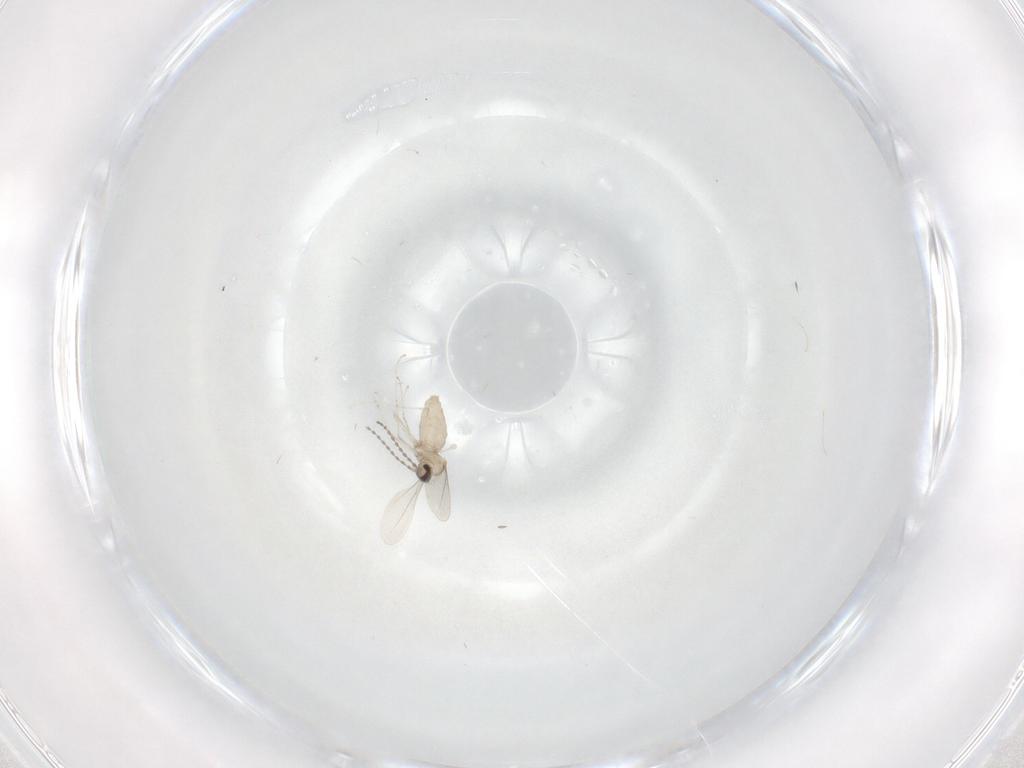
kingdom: Animalia
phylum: Arthropoda
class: Insecta
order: Diptera
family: Cecidomyiidae
